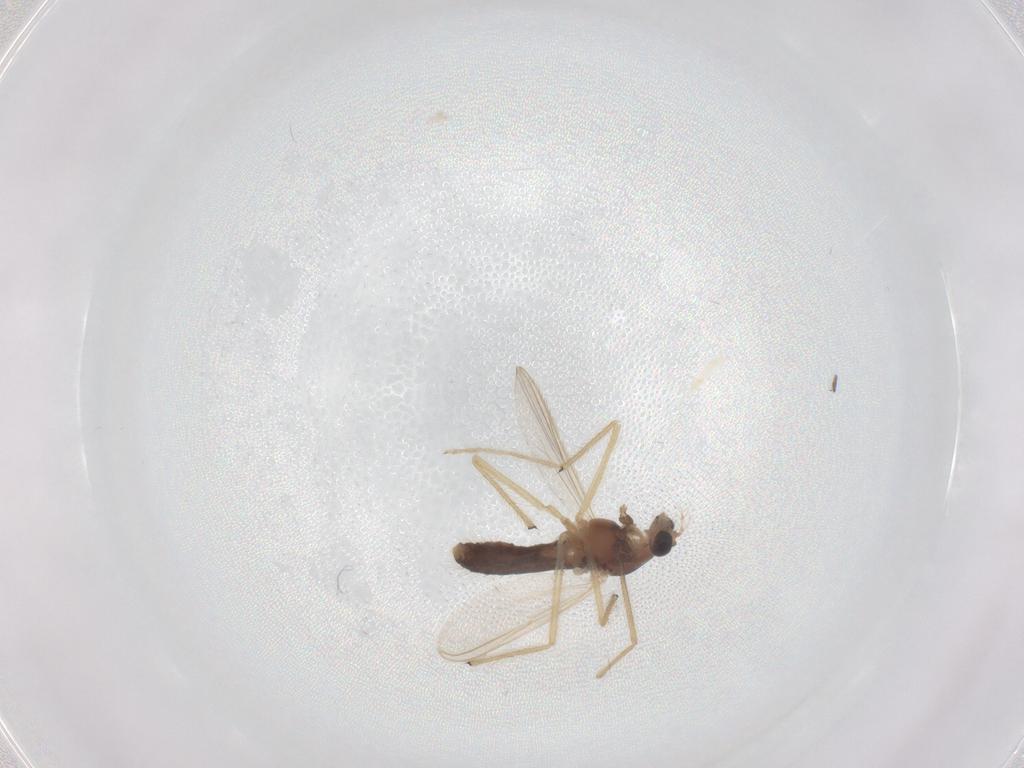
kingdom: Animalia
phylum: Arthropoda
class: Insecta
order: Diptera
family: Chironomidae
